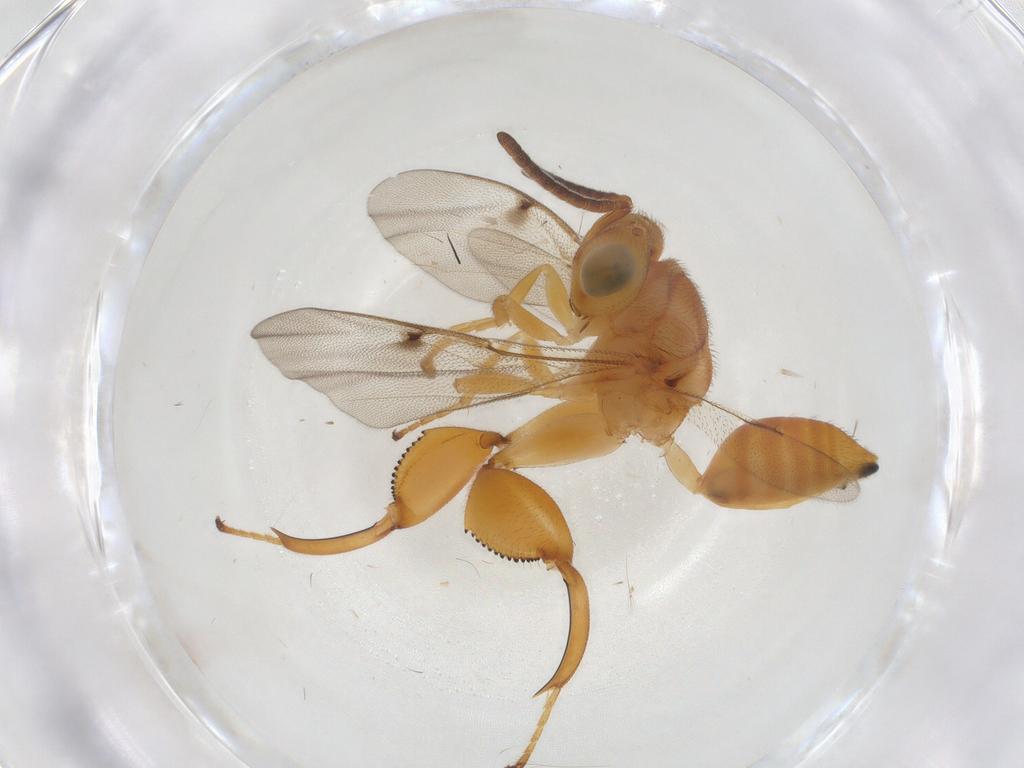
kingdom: Animalia
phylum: Arthropoda
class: Insecta
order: Hymenoptera
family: Chalcididae
